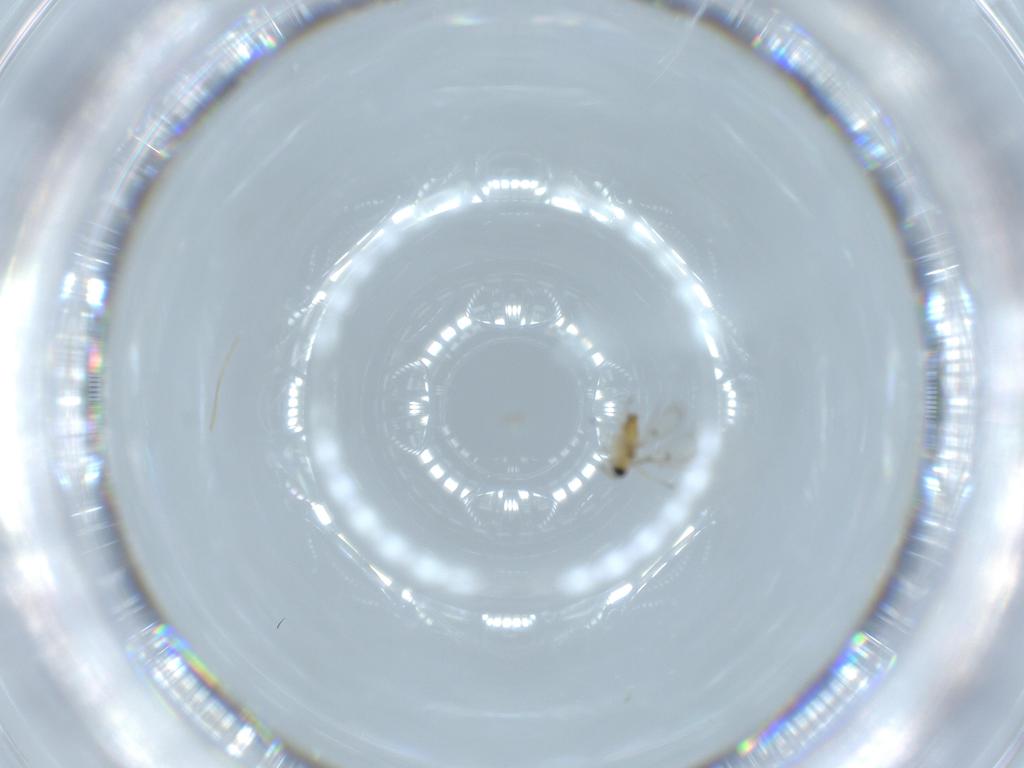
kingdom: Animalia
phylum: Arthropoda
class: Insecta
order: Hymenoptera
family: Trichogrammatidae
